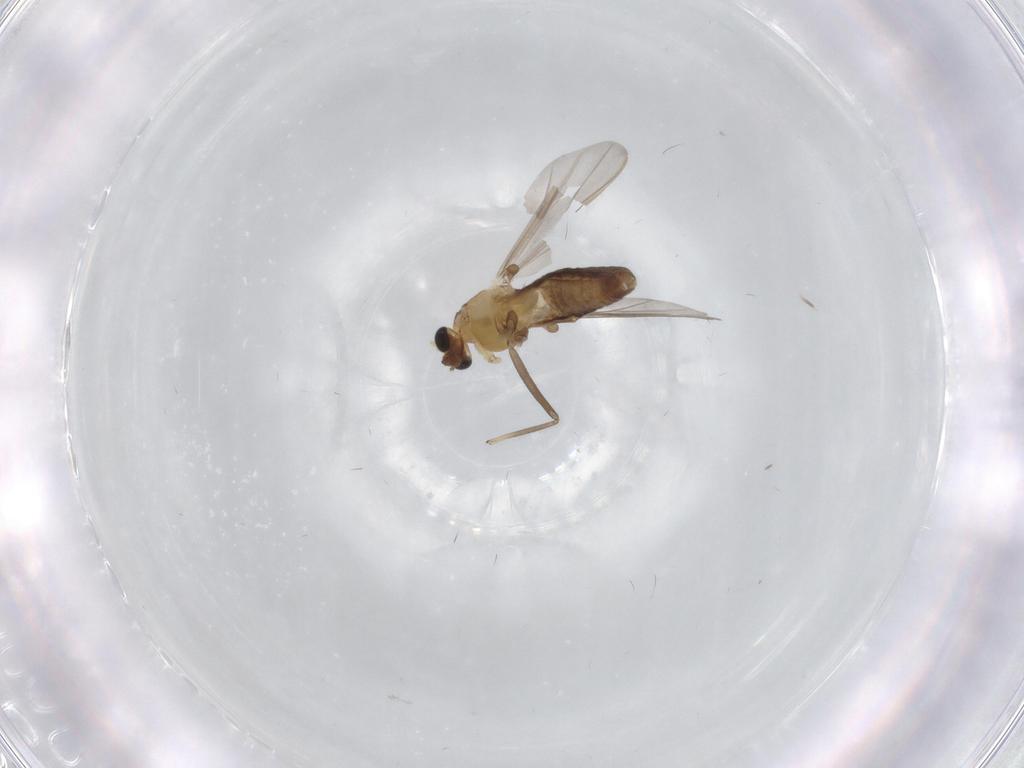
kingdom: Animalia
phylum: Arthropoda
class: Insecta
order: Diptera
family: Chironomidae
